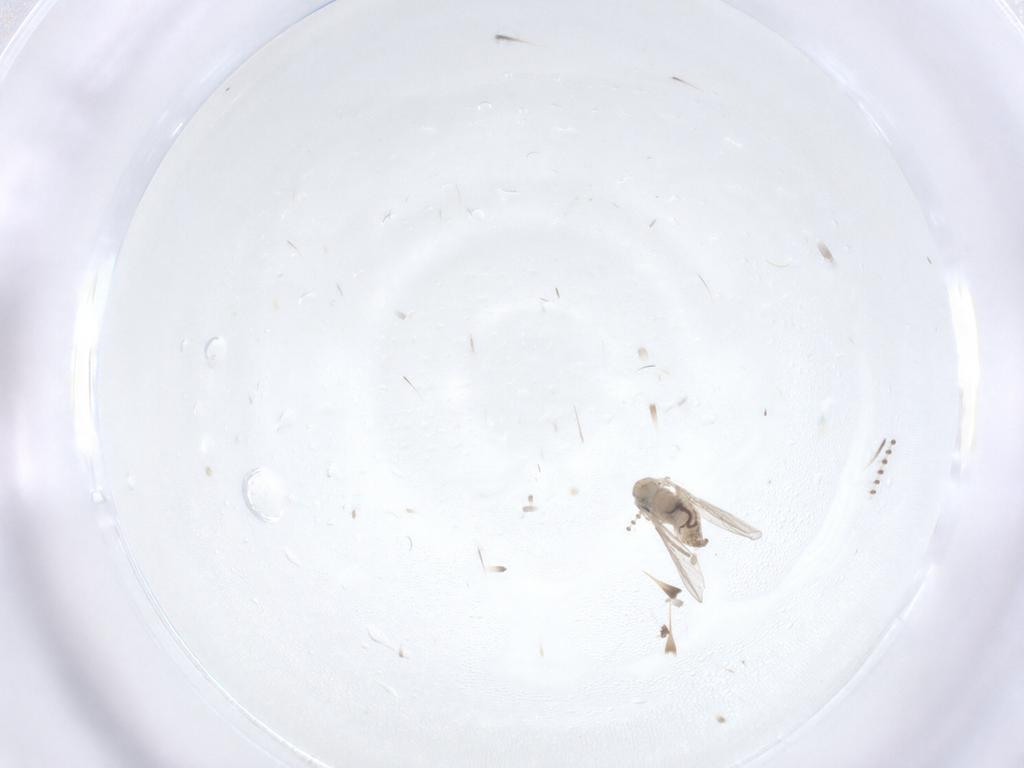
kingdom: Animalia
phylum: Arthropoda
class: Insecta
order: Diptera
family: Psychodidae
